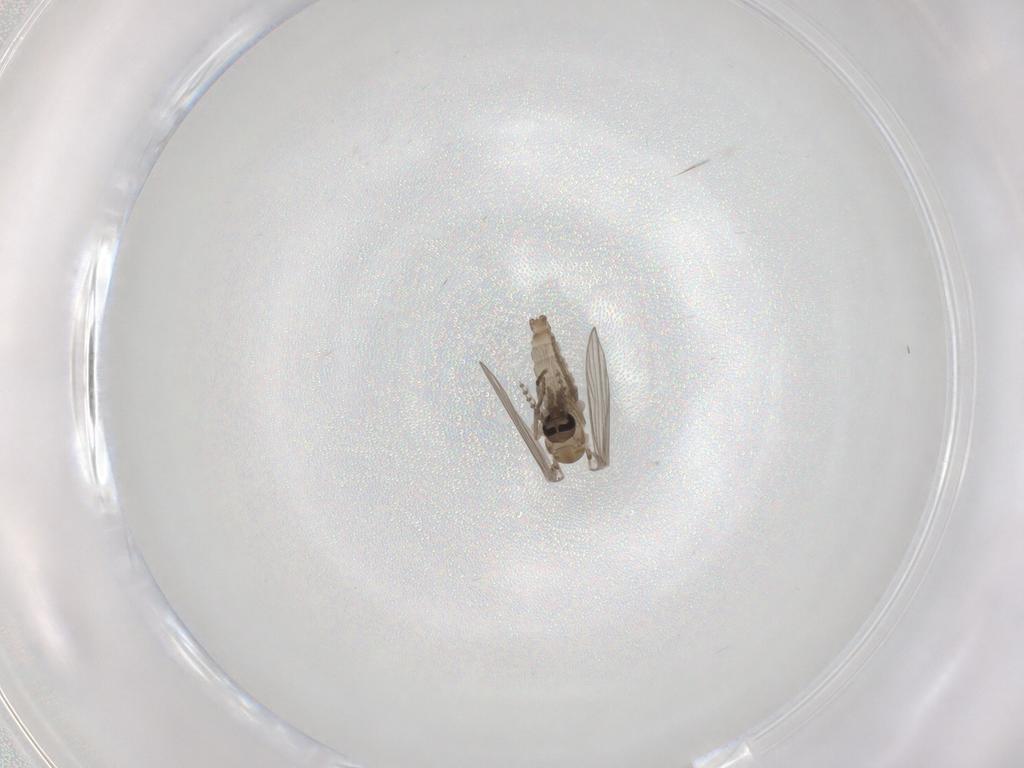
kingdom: Animalia
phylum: Arthropoda
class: Insecta
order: Diptera
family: Psychodidae
